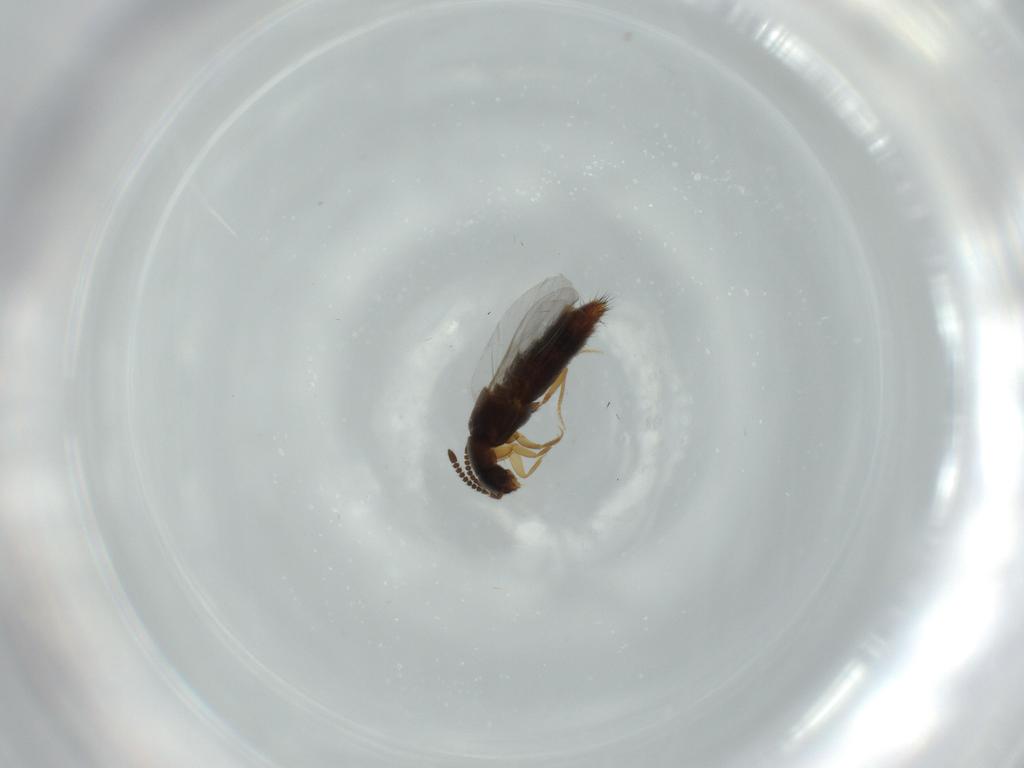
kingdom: Animalia
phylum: Arthropoda
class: Insecta
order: Coleoptera
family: Staphylinidae
